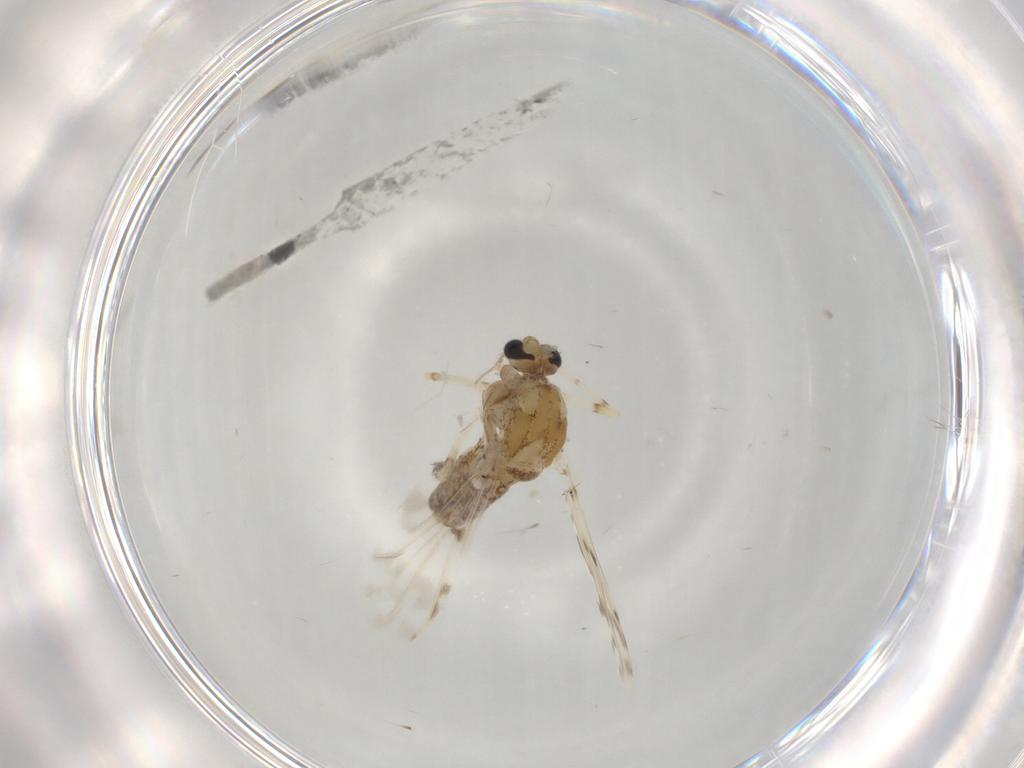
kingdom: Animalia
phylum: Arthropoda
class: Insecta
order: Diptera
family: Chironomidae
